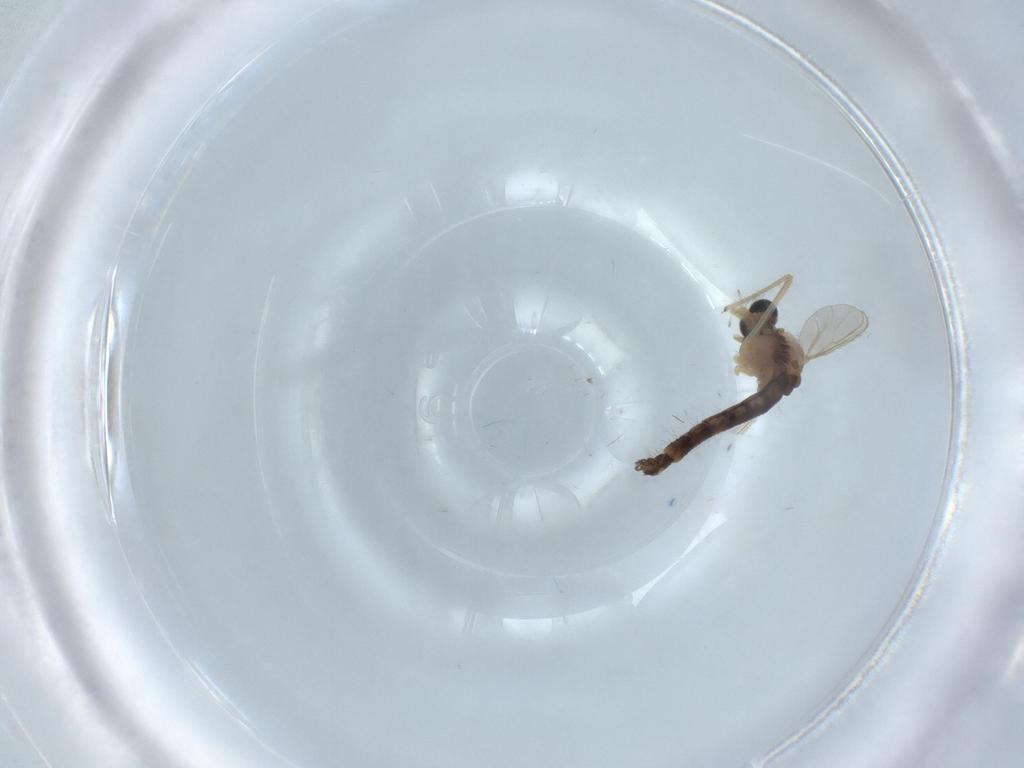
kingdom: Animalia
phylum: Arthropoda
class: Insecta
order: Diptera
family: Chironomidae
